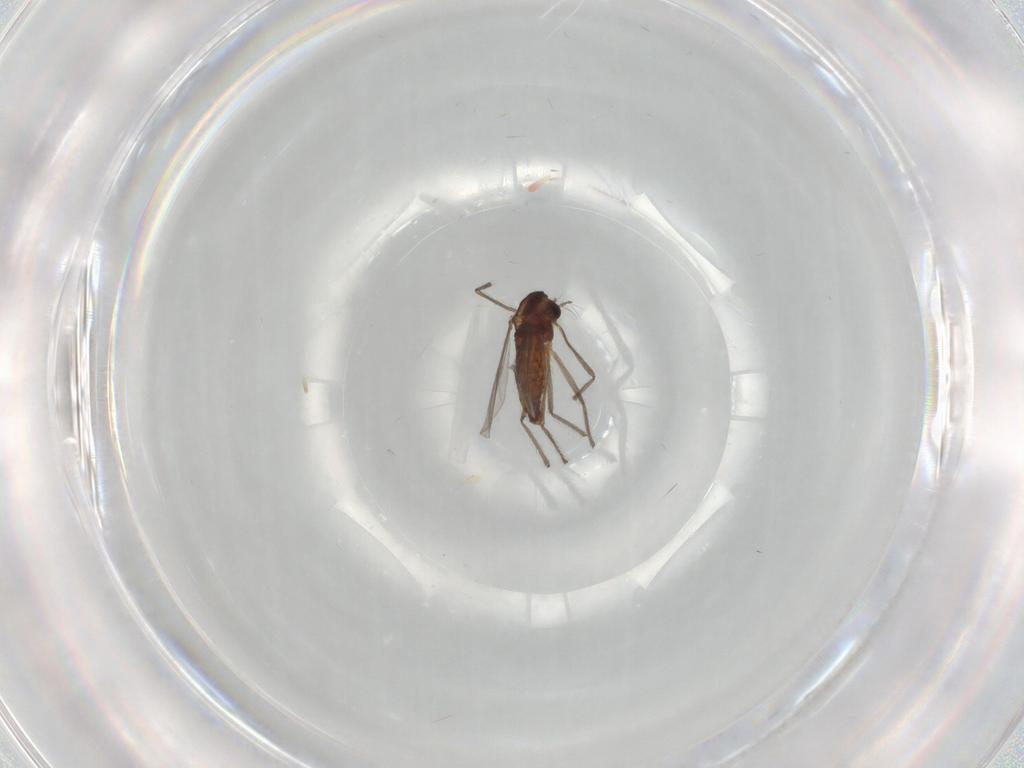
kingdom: Animalia
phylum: Arthropoda
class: Insecta
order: Diptera
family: Chironomidae
